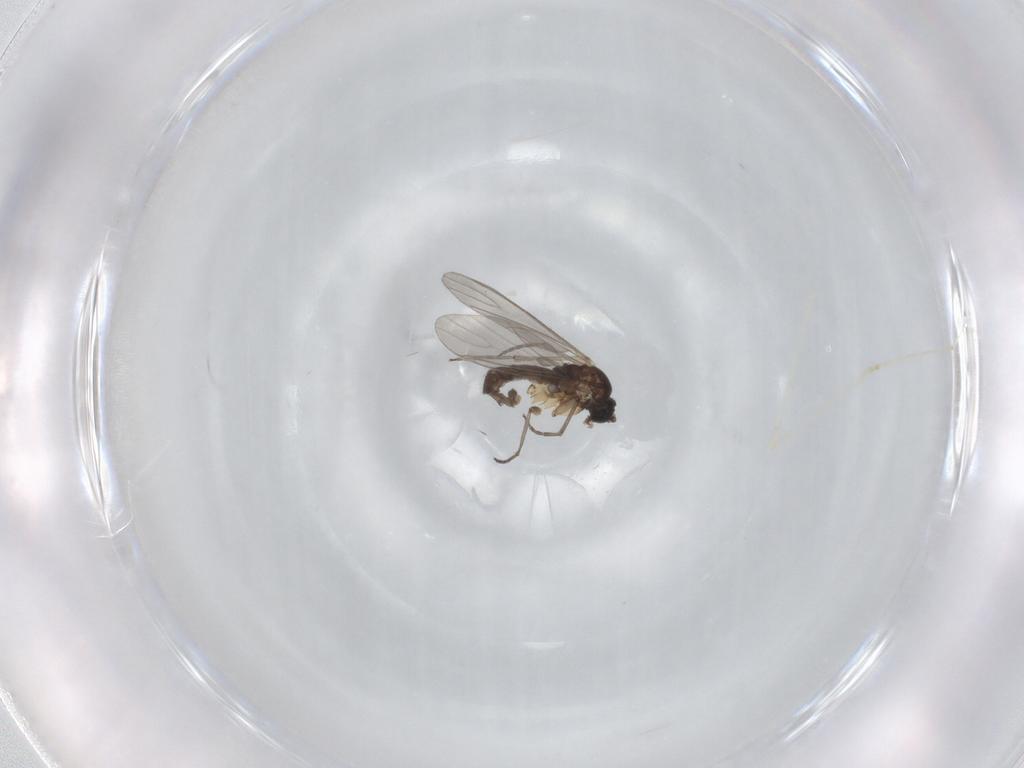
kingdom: Animalia
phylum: Arthropoda
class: Insecta
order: Diptera
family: Cecidomyiidae
